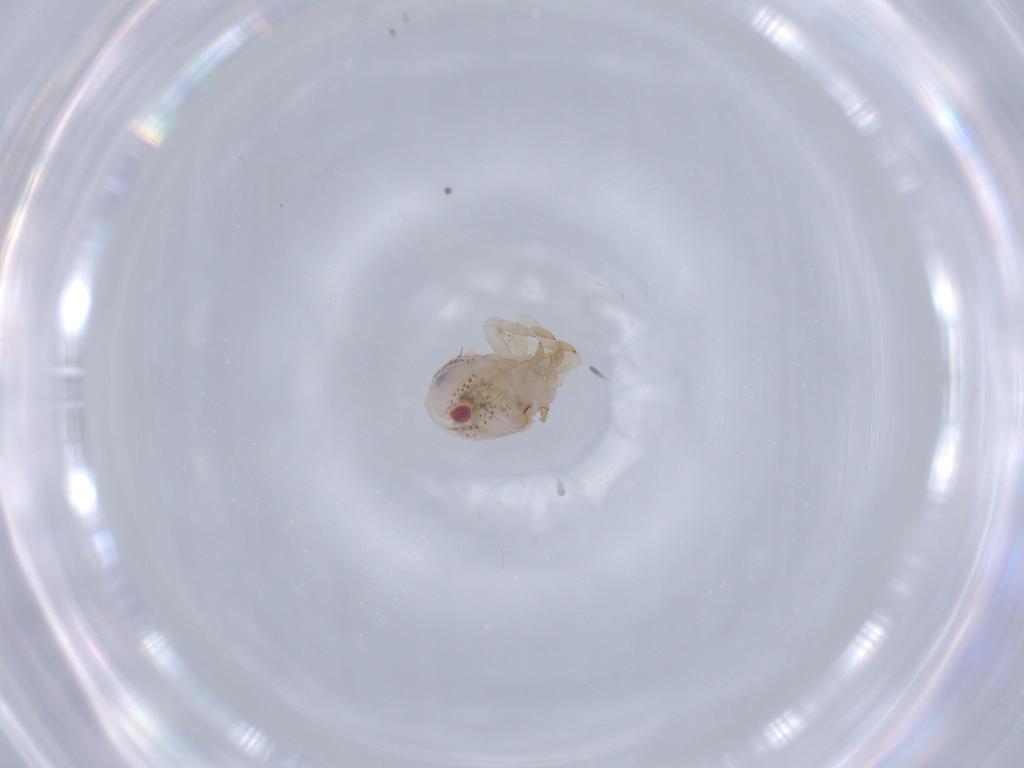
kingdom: Animalia
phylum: Arthropoda
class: Insecta
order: Hemiptera
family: Acanaloniidae
